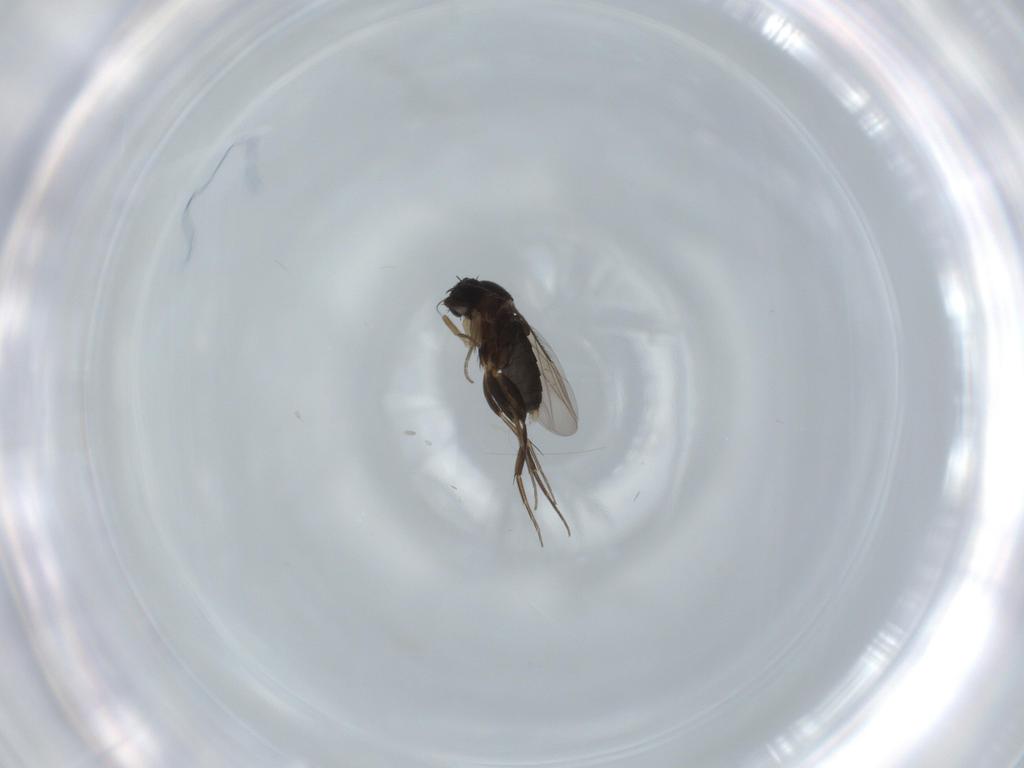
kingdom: Animalia
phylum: Arthropoda
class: Insecta
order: Diptera
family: Phoridae
